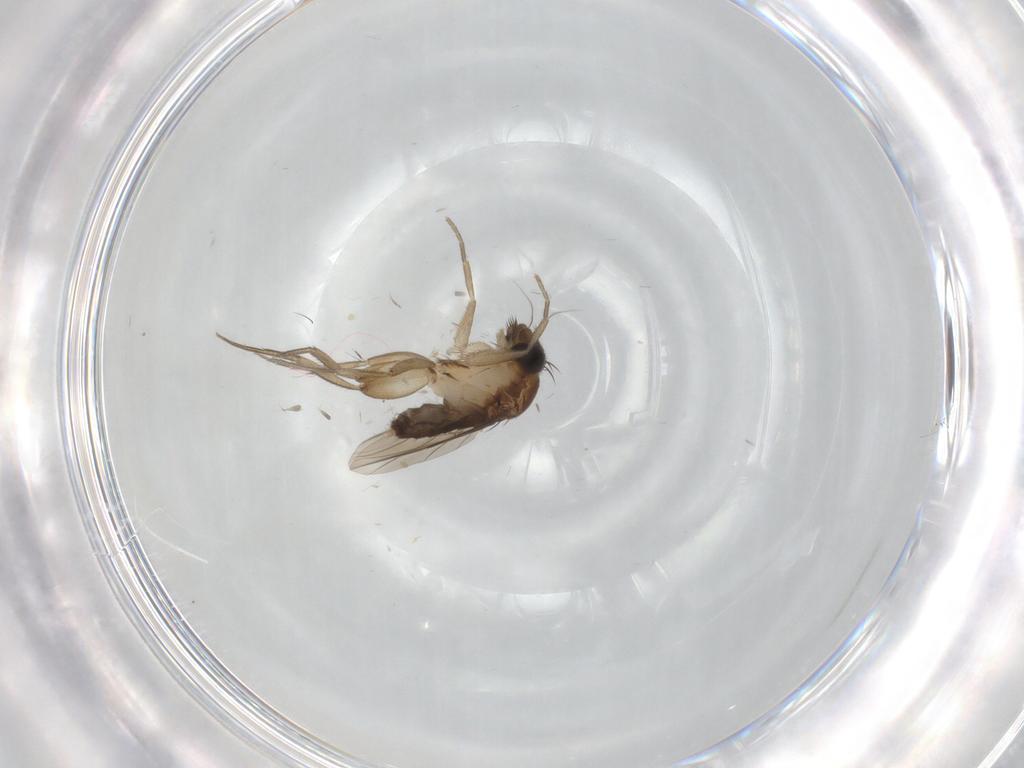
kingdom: Animalia
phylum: Arthropoda
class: Insecta
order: Diptera
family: Phoridae
